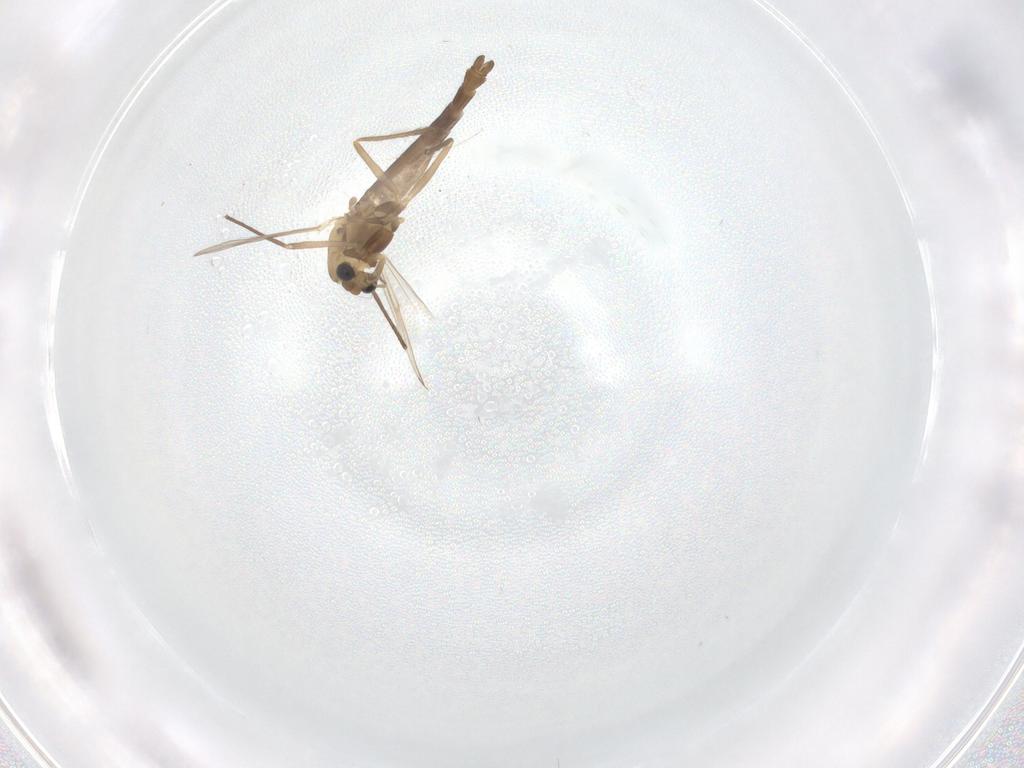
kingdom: Animalia
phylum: Arthropoda
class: Insecta
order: Diptera
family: Chironomidae
